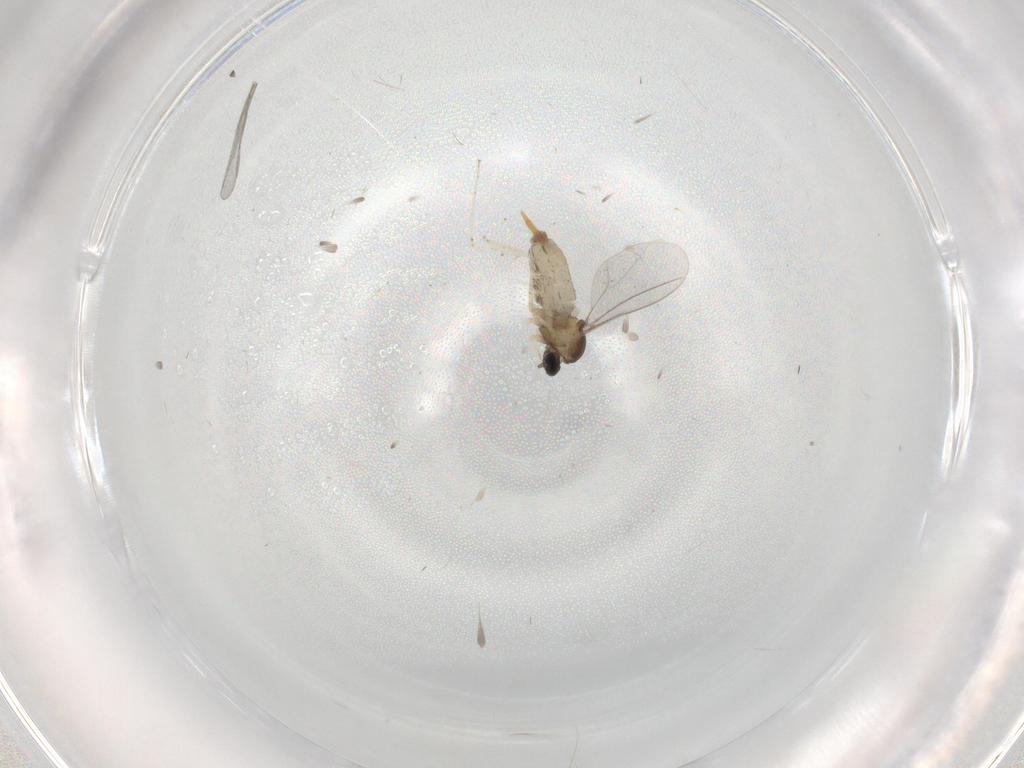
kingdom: Animalia
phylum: Arthropoda
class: Insecta
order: Diptera
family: Cecidomyiidae
